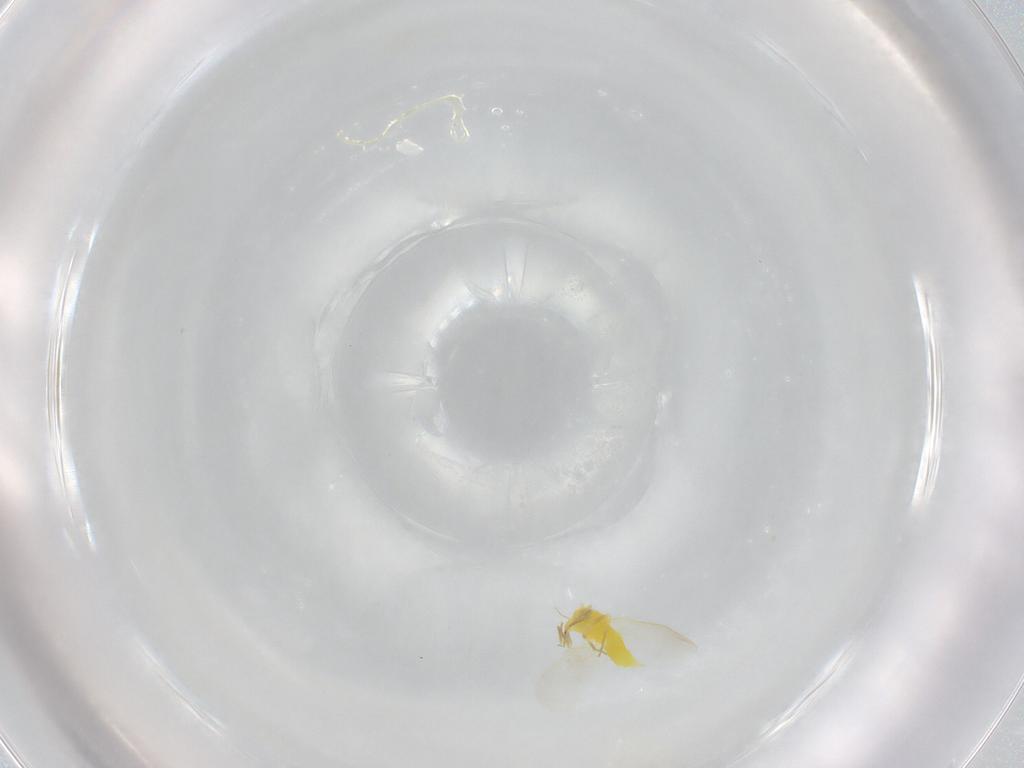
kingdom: Animalia
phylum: Arthropoda
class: Insecta
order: Hemiptera
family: Aleyrodidae
